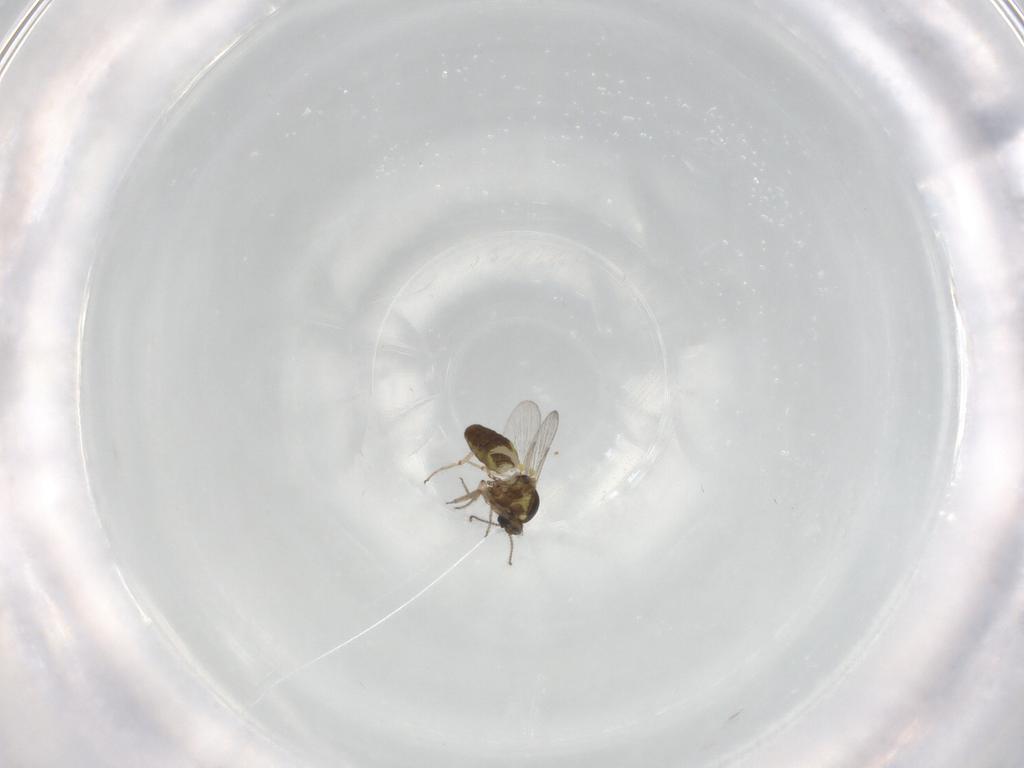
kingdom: Animalia
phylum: Arthropoda
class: Insecta
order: Diptera
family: Ceratopogonidae
